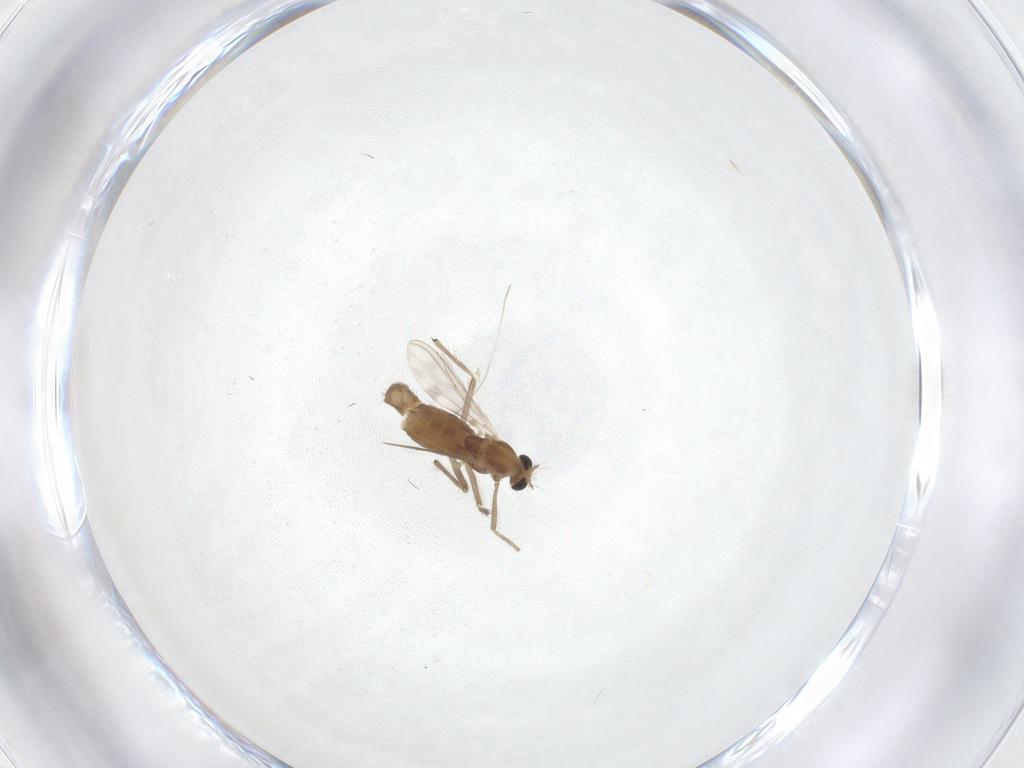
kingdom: Animalia
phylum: Arthropoda
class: Insecta
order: Diptera
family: Chironomidae
